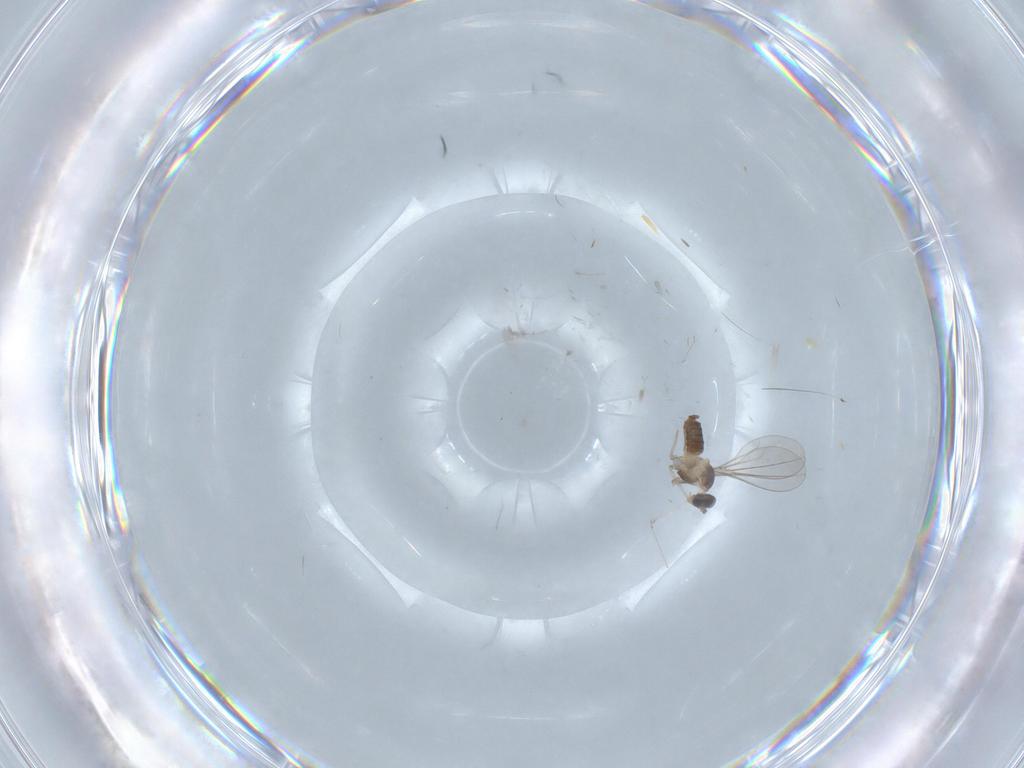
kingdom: Animalia
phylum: Arthropoda
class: Insecta
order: Diptera
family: Cecidomyiidae
